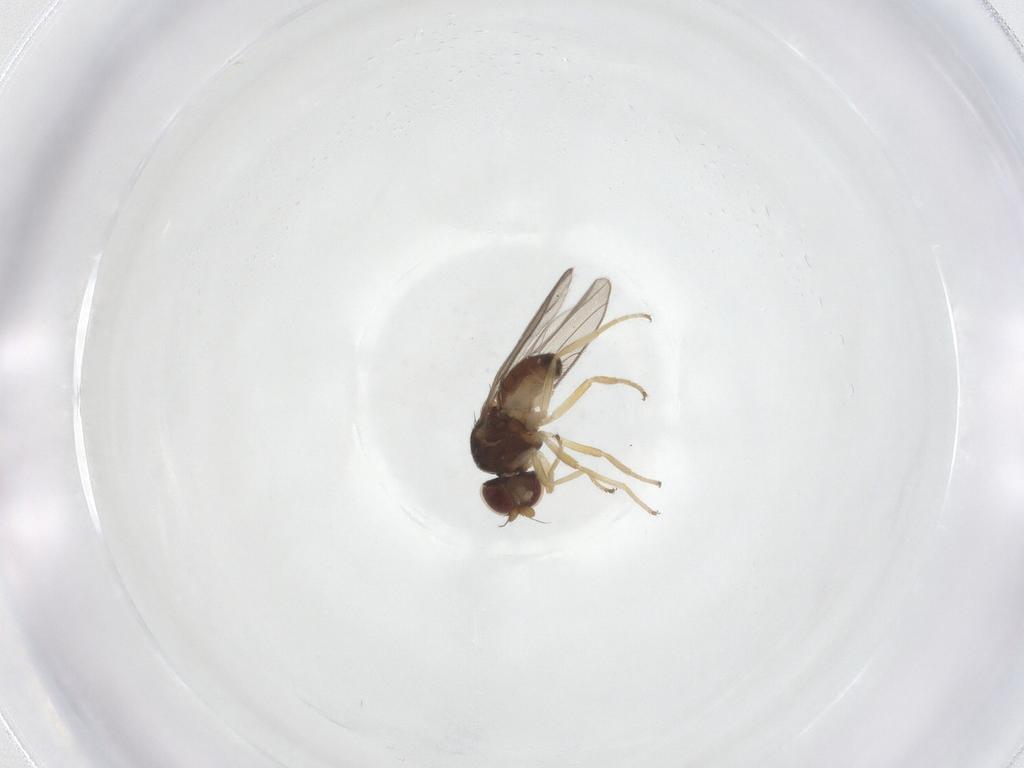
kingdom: Animalia
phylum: Arthropoda
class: Insecta
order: Diptera
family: Chloropidae
